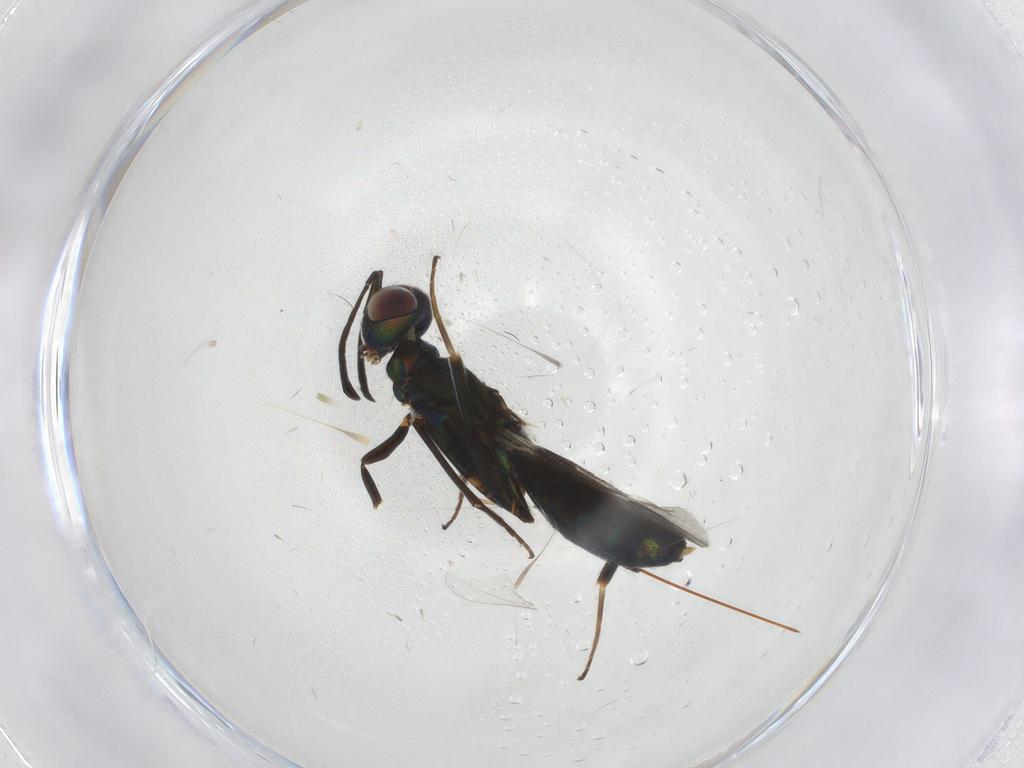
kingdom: Animalia
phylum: Arthropoda
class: Insecta
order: Hymenoptera
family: Eupelmidae
